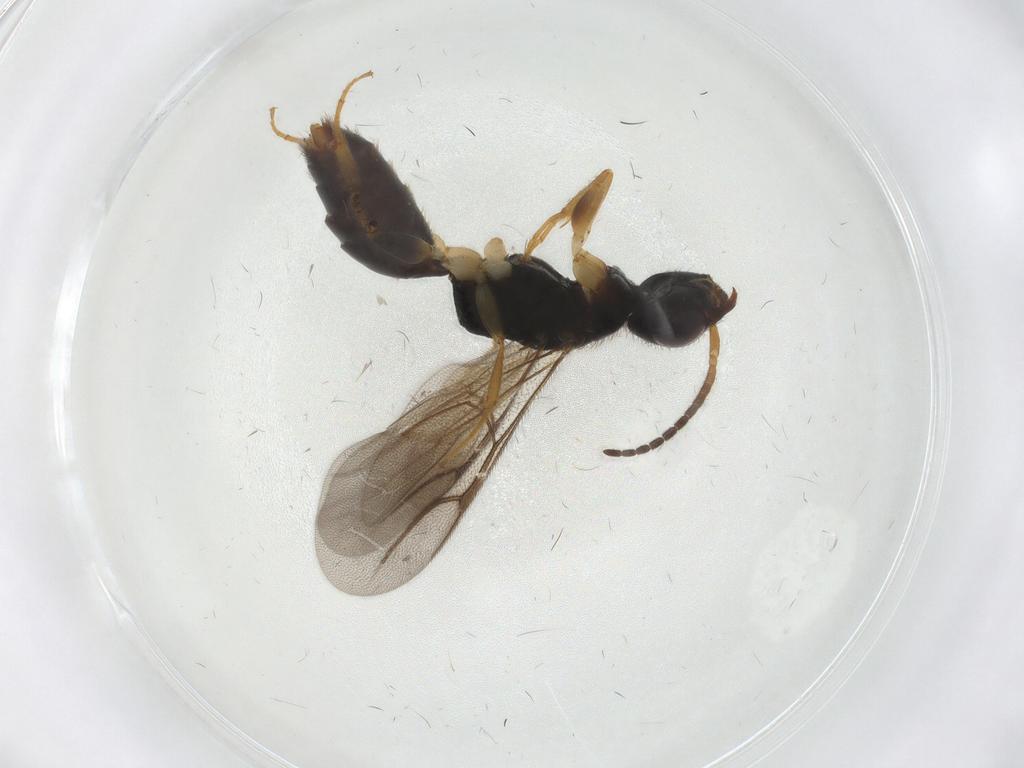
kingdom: Animalia
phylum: Arthropoda
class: Insecta
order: Hymenoptera
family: Bethylidae
